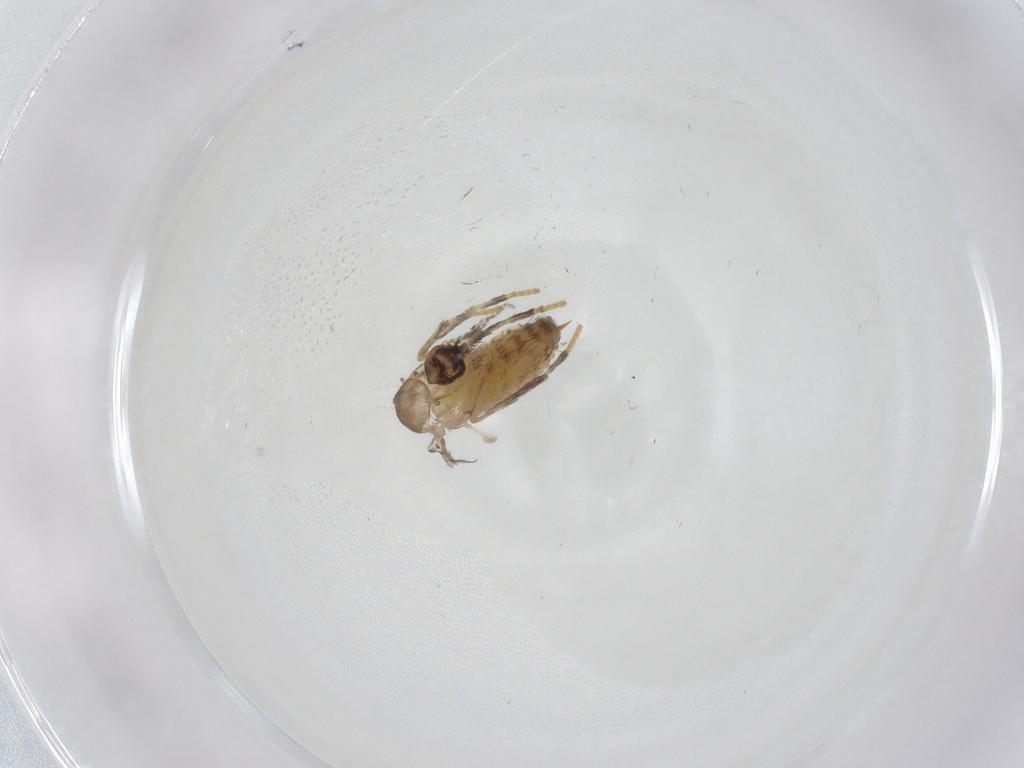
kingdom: Animalia
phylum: Arthropoda
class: Insecta
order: Diptera
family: Psychodidae
